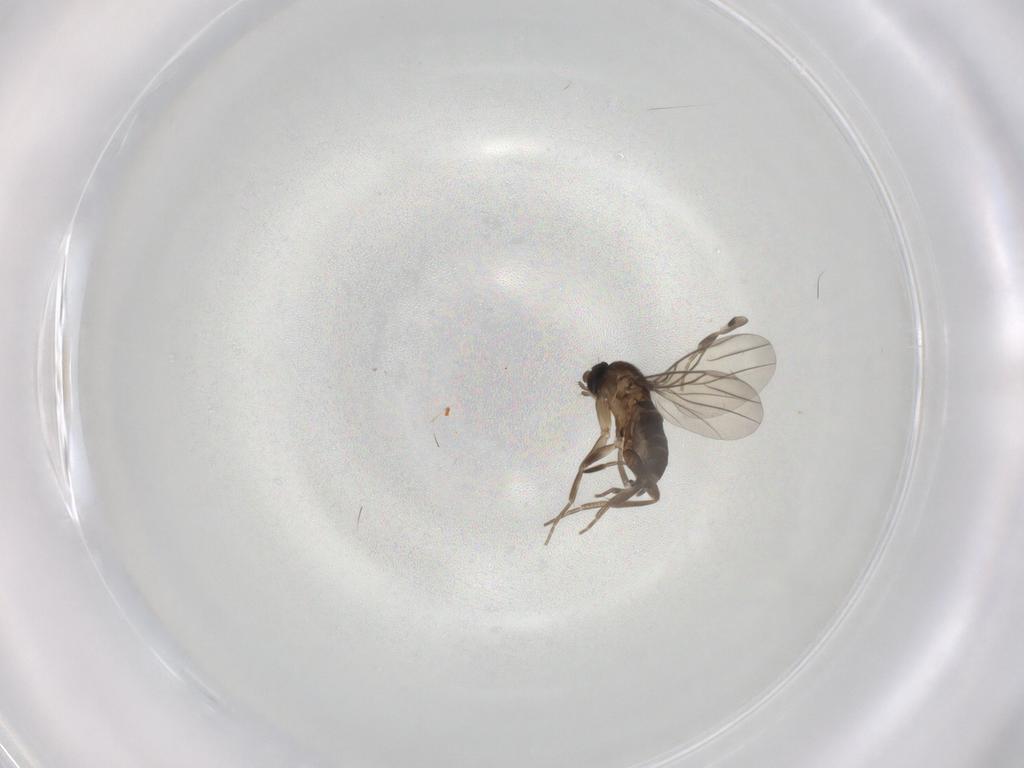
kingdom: Animalia
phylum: Arthropoda
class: Insecta
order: Diptera
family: Phoridae
